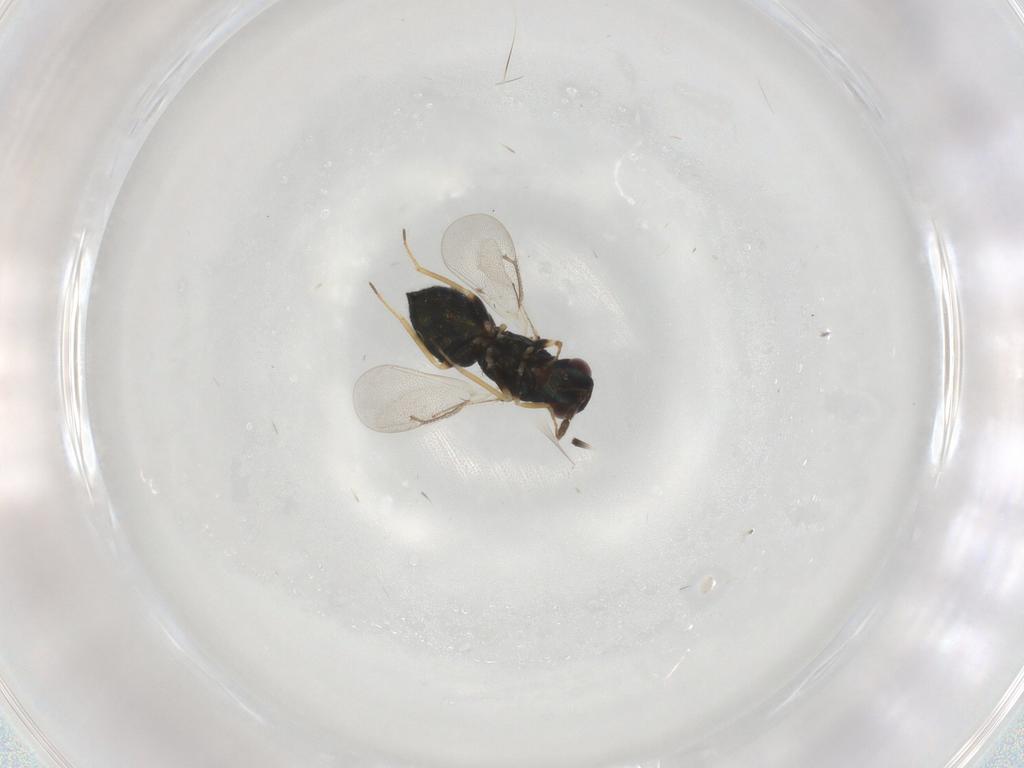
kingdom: Animalia
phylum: Arthropoda
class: Insecta
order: Hymenoptera
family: Eulophidae
